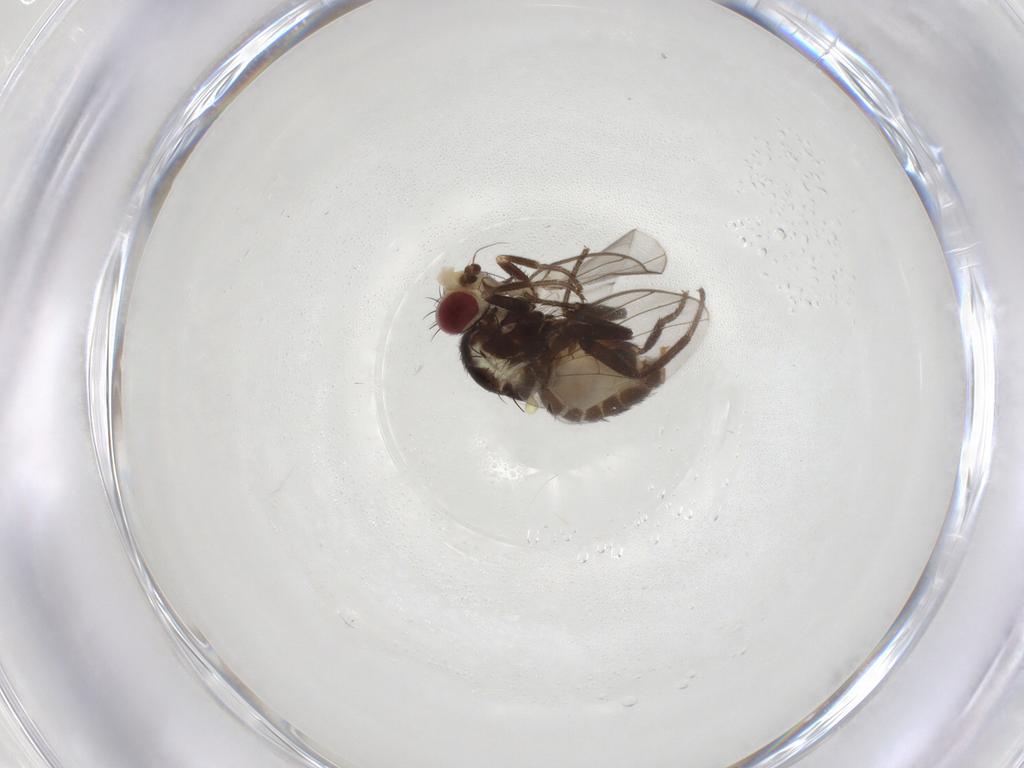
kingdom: Animalia
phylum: Arthropoda
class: Insecta
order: Diptera
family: Agromyzidae
